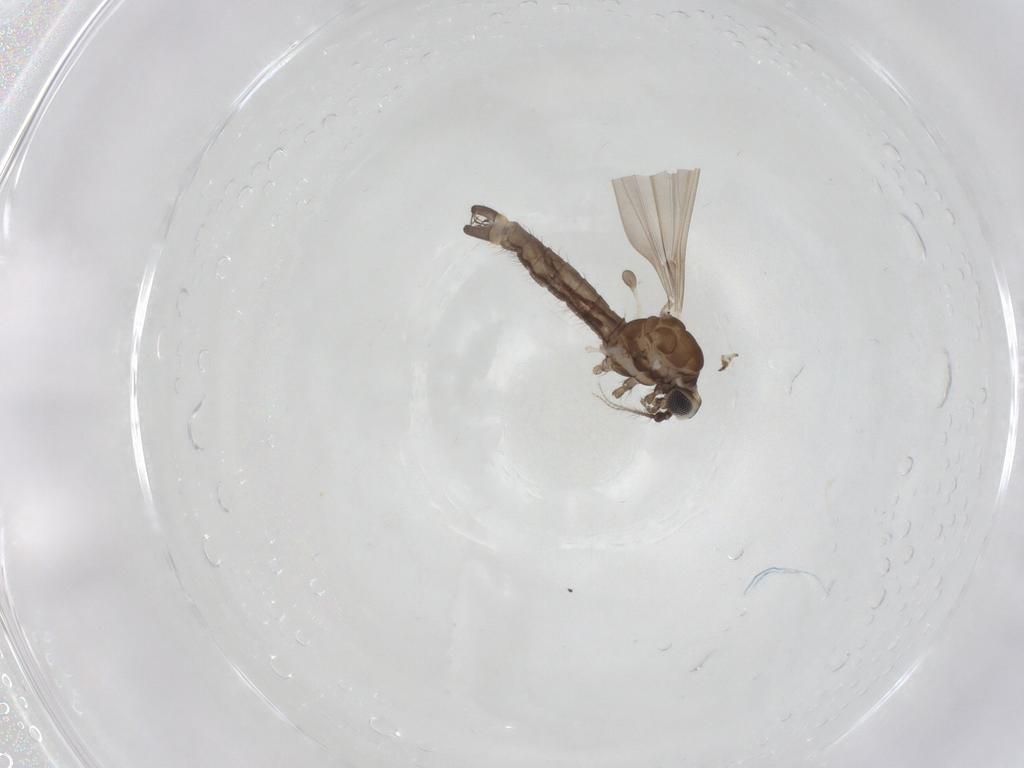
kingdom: Animalia
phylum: Arthropoda
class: Insecta
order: Diptera
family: Limoniidae
